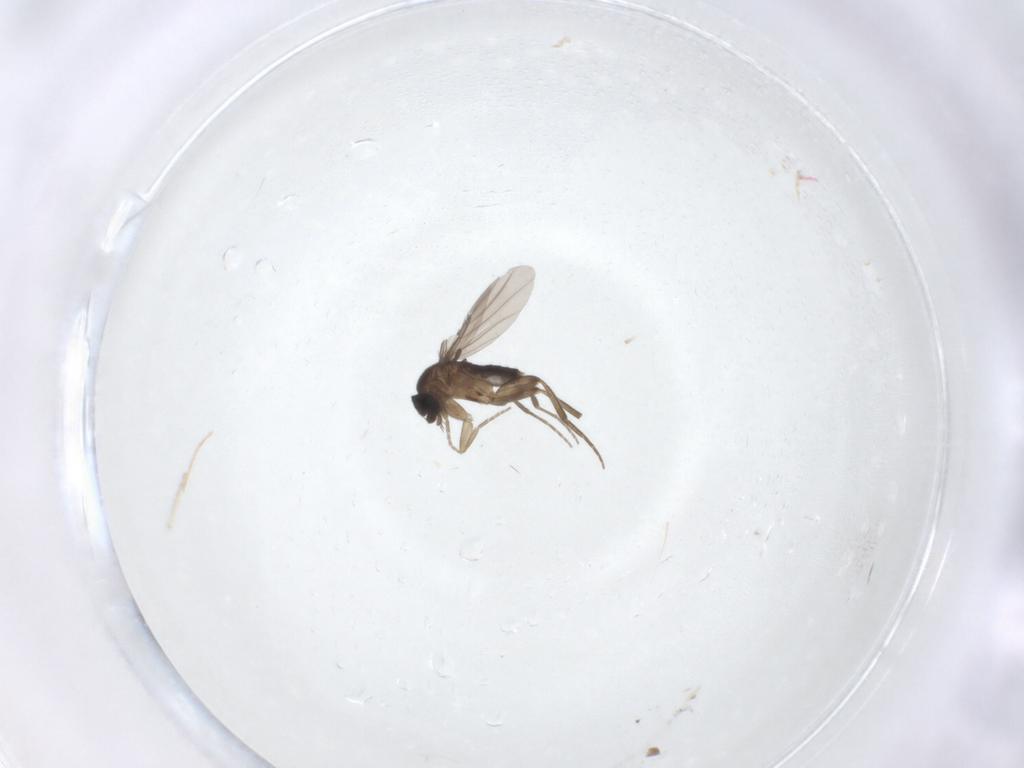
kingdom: Animalia
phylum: Arthropoda
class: Insecta
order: Diptera
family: Phoridae
